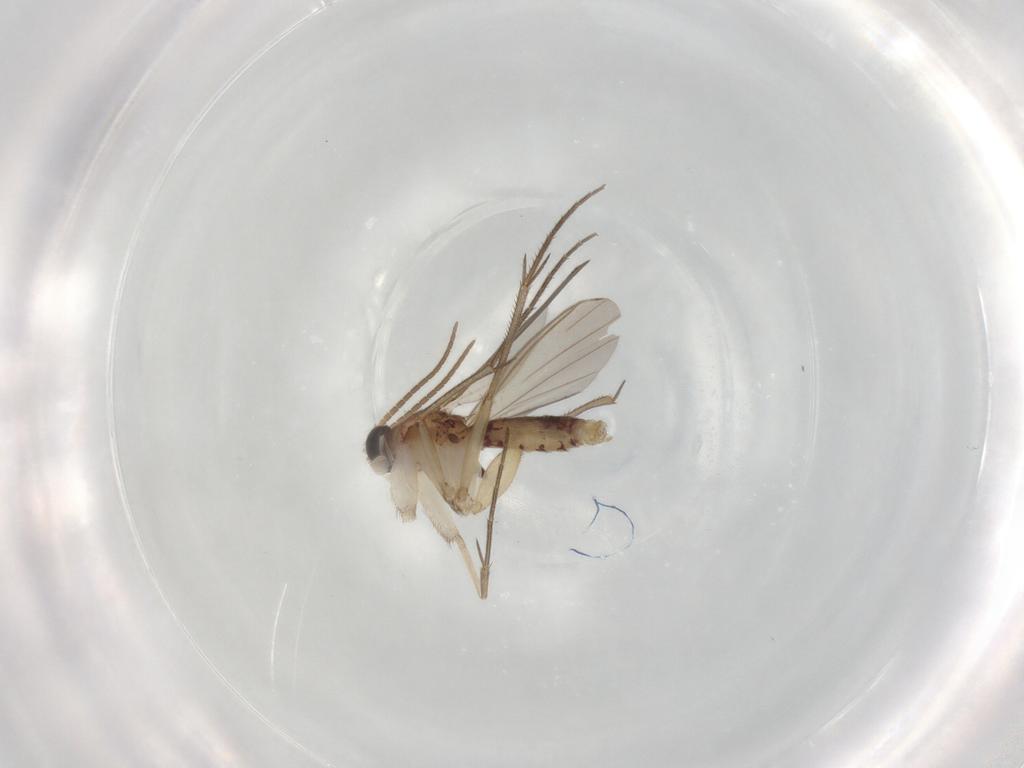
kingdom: Animalia
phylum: Arthropoda
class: Insecta
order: Diptera
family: Mycetophilidae
